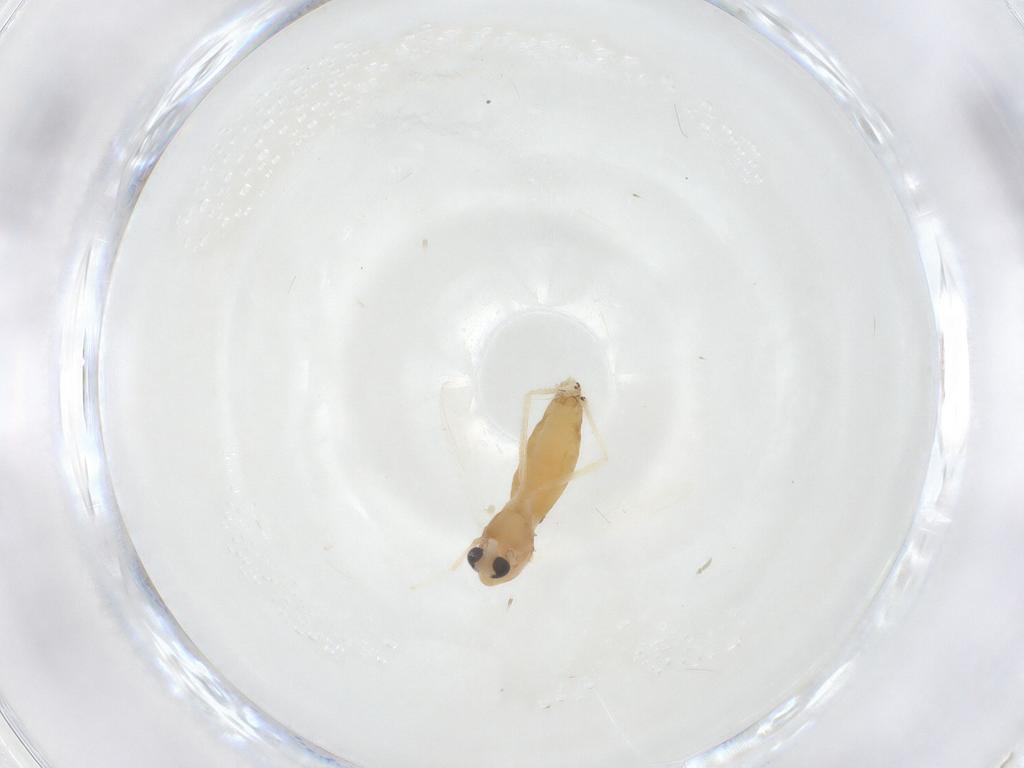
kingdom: Animalia
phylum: Arthropoda
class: Insecta
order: Diptera
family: Chironomidae
